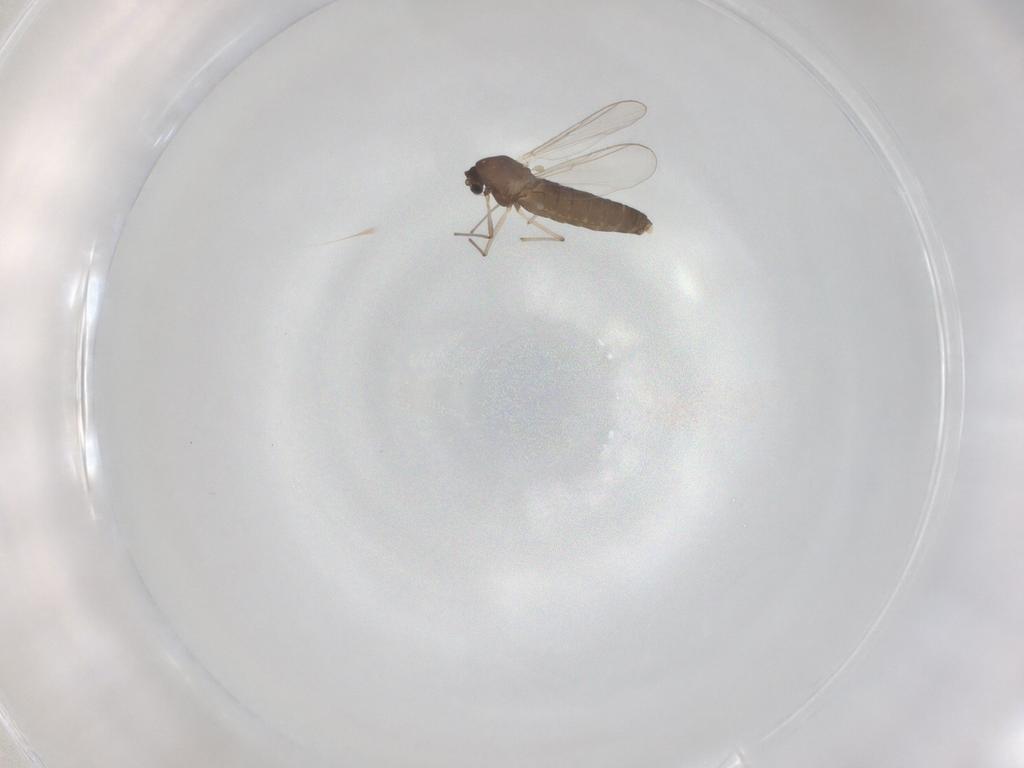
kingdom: Animalia
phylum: Arthropoda
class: Insecta
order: Diptera
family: Chironomidae
